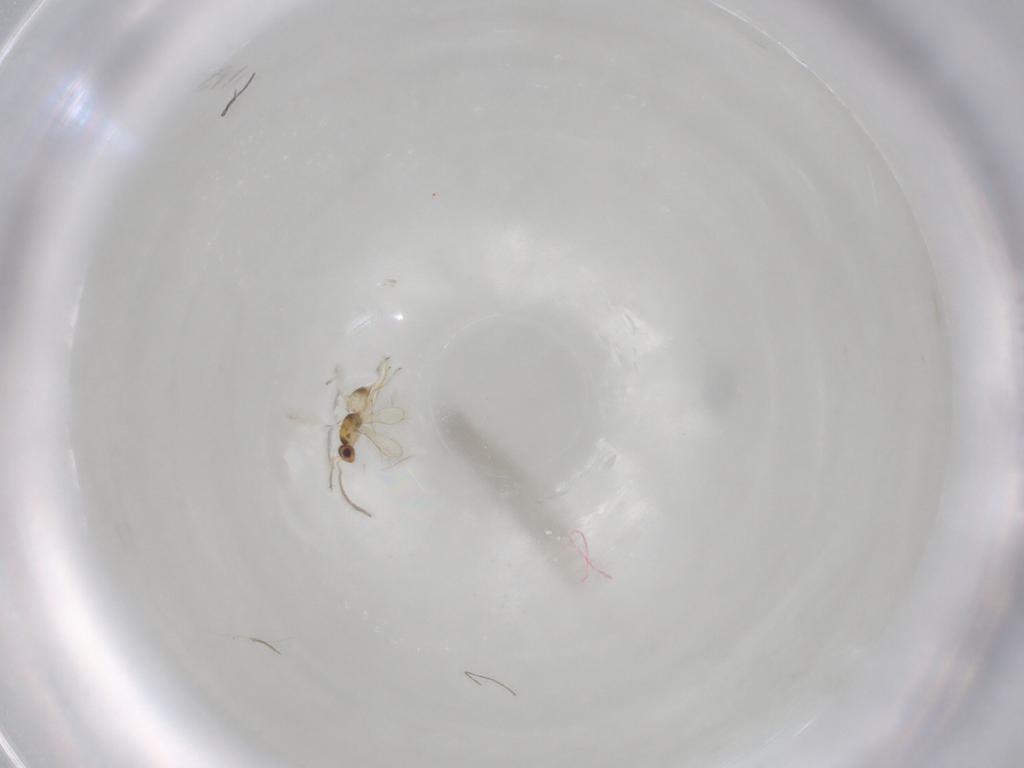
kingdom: Animalia
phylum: Arthropoda
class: Insecta
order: Hymenoptera
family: Mymaridae
